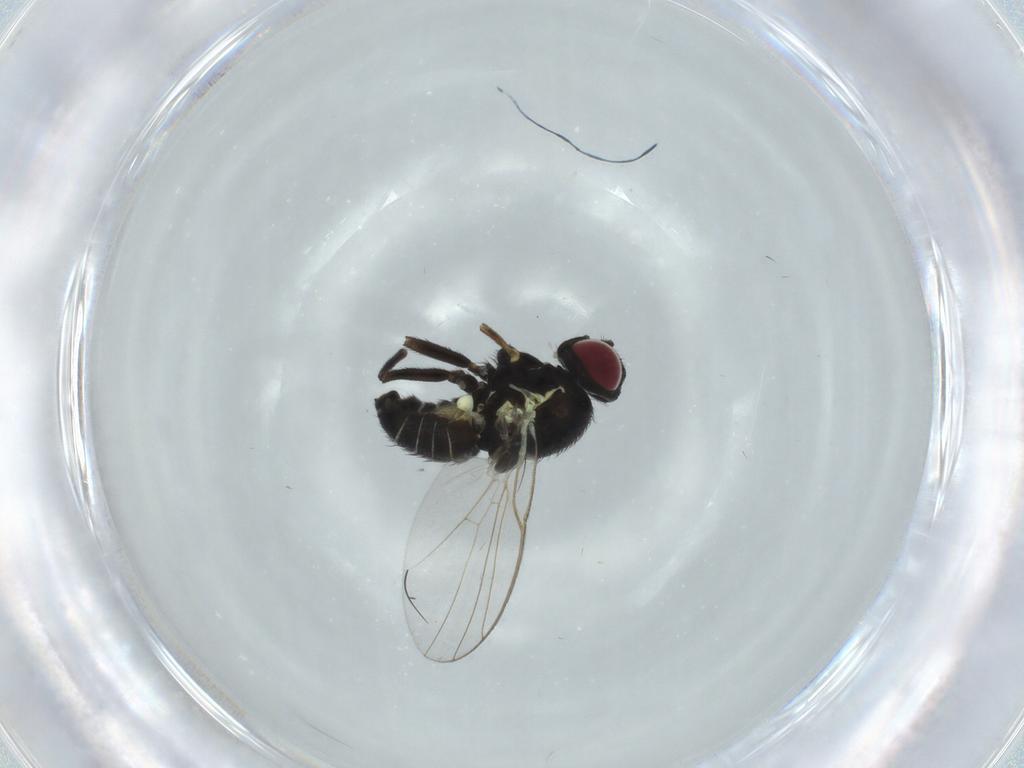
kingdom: Animalia
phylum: Arthropoda
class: Insecta
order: Diptera
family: Agromyzidae
